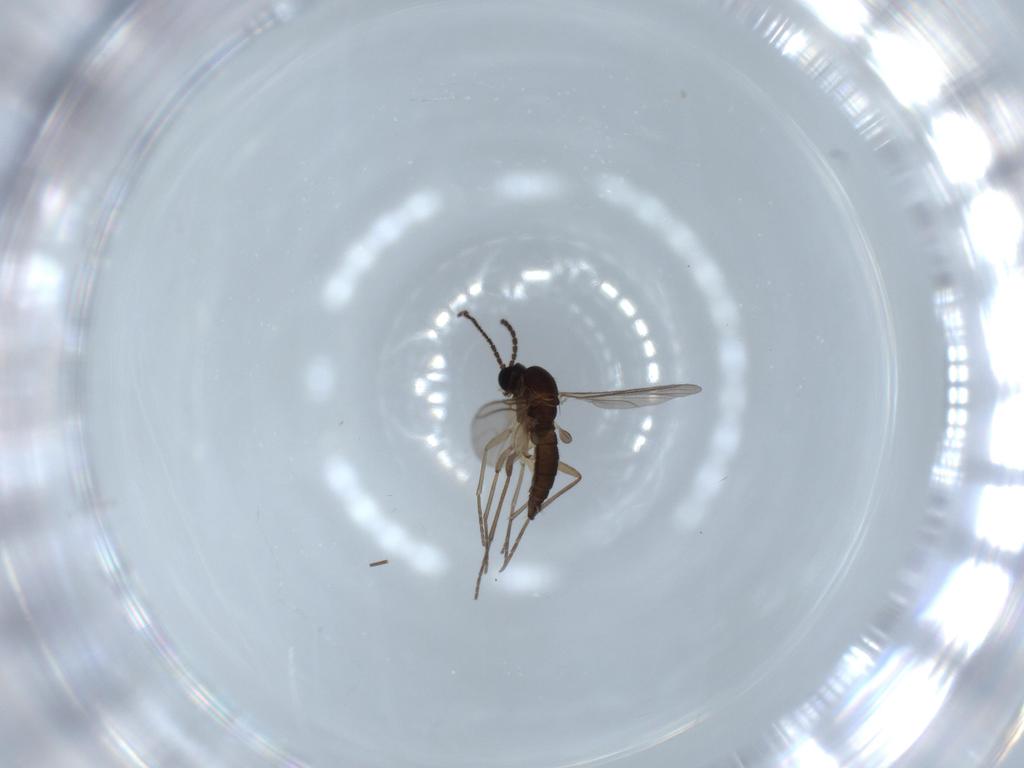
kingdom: Animalia
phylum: Arthropoda
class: Insecta
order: Diptera
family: Sciaridae
